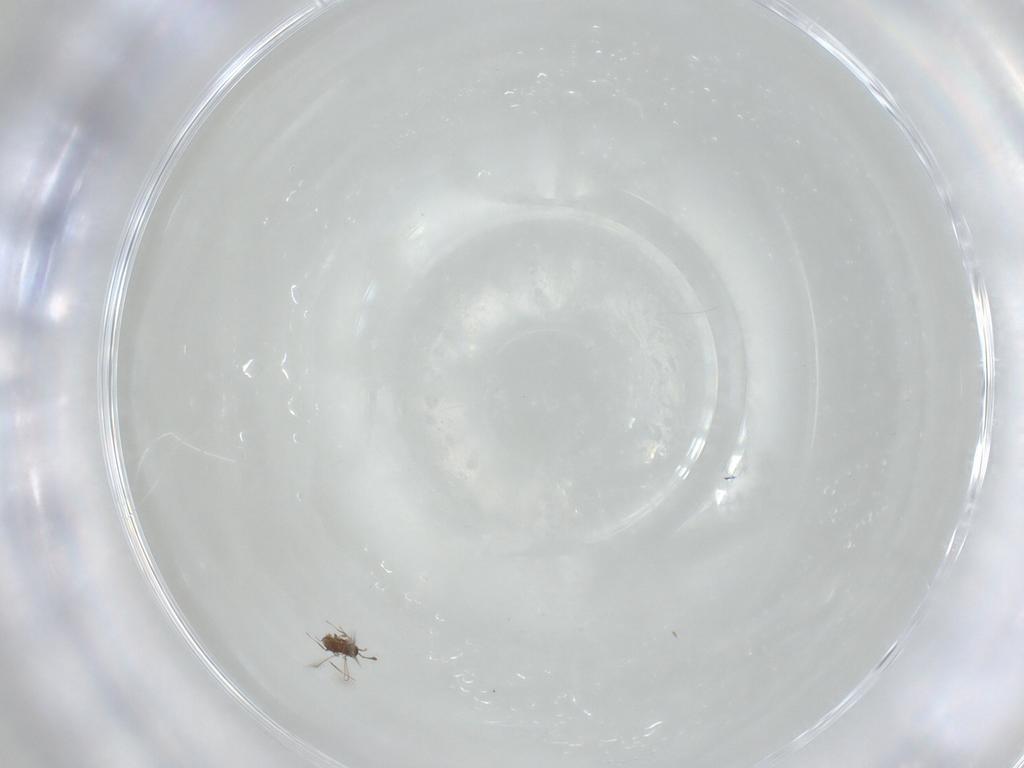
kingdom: Animalia
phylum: Arthropoda
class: Insecta
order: Hymenoptera
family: Mymaridae
